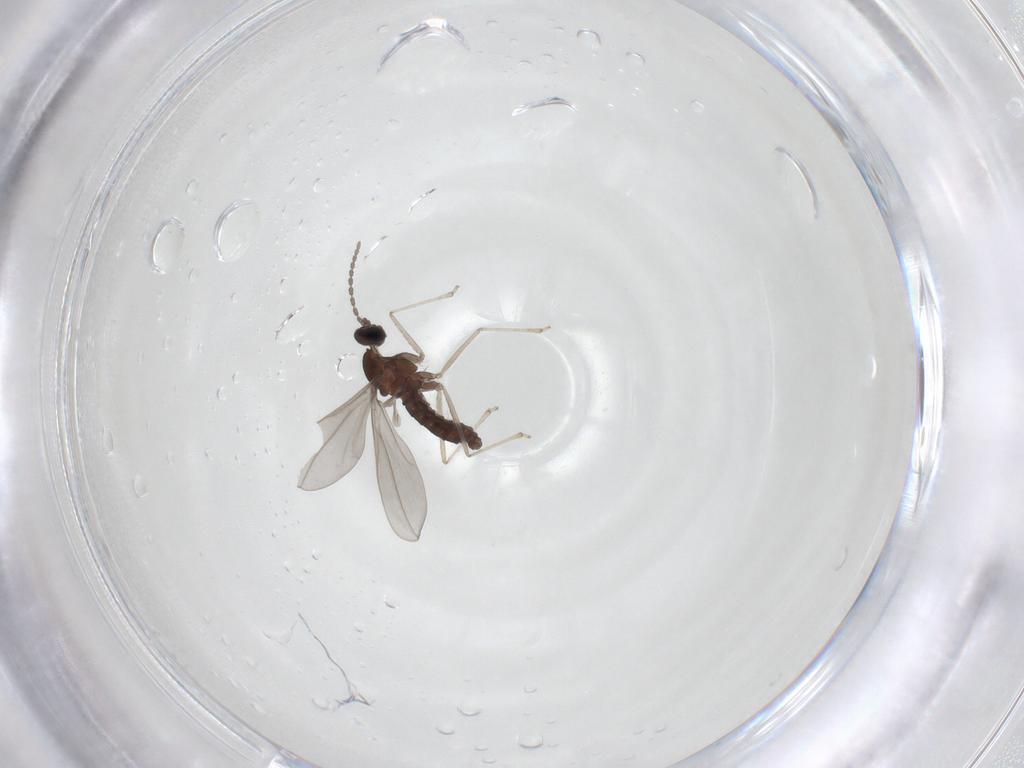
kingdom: Animalia
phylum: Arthropoda
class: Insecta
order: Diptera
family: Cecidomyiidae
